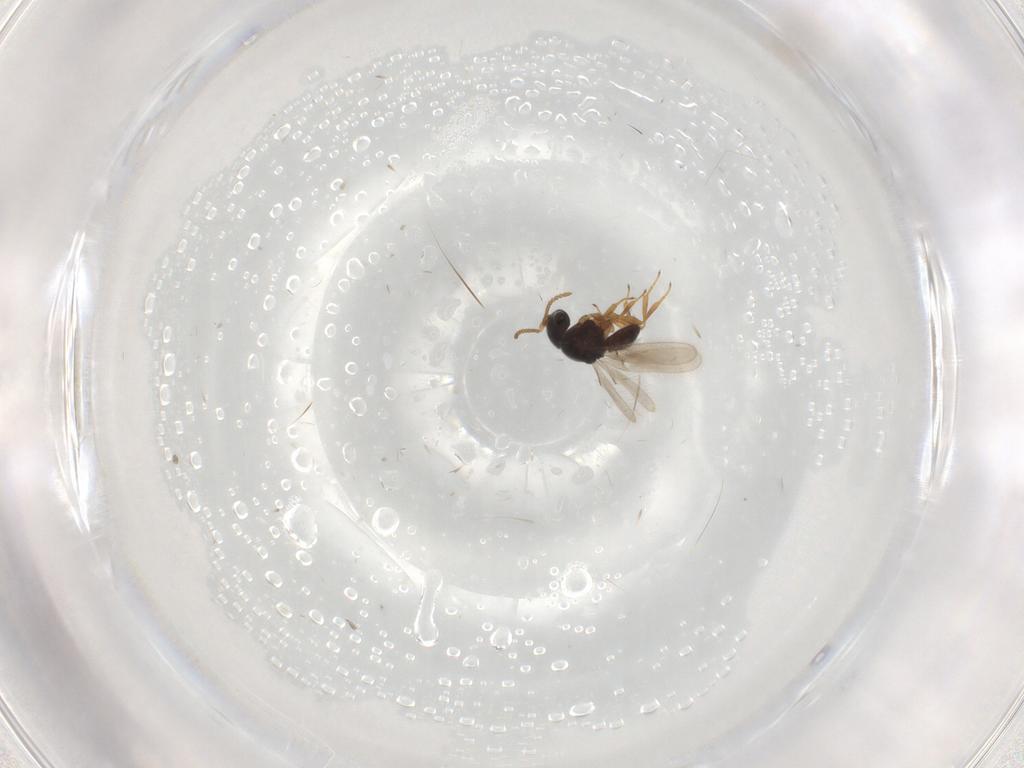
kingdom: Animalia
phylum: Arthropoda
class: Insecta
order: Hymenoptera
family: Mymaridae
